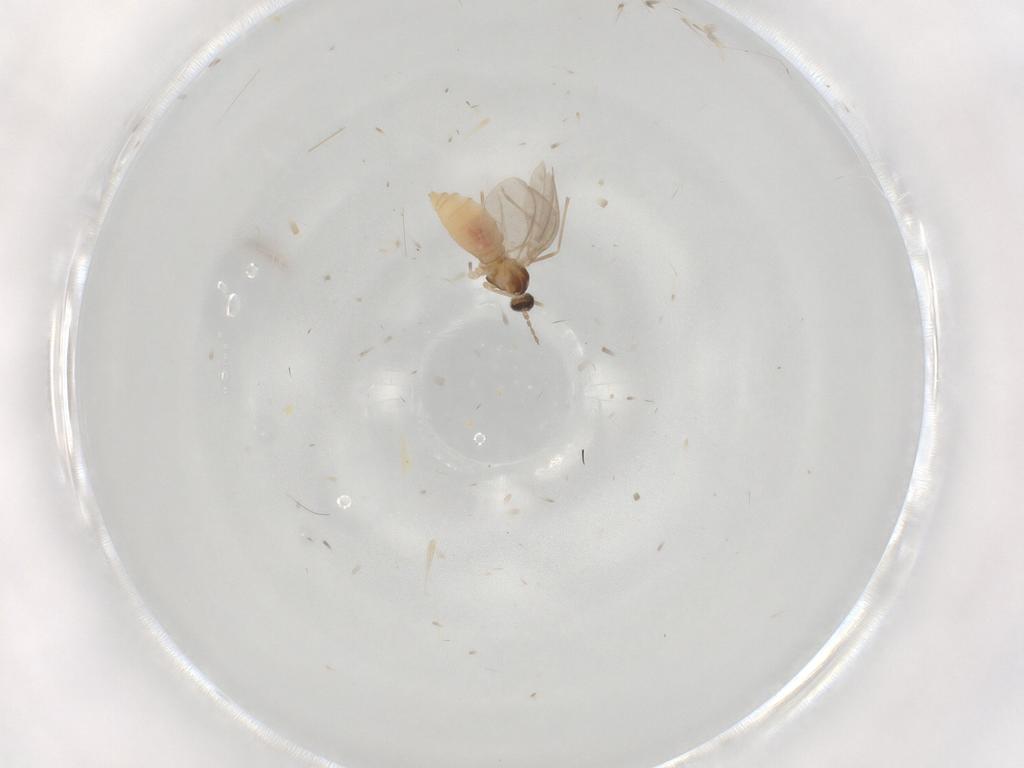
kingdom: Animalia
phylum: Arthropoda
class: Insecta
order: Diptera
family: Cecidomyiidae
